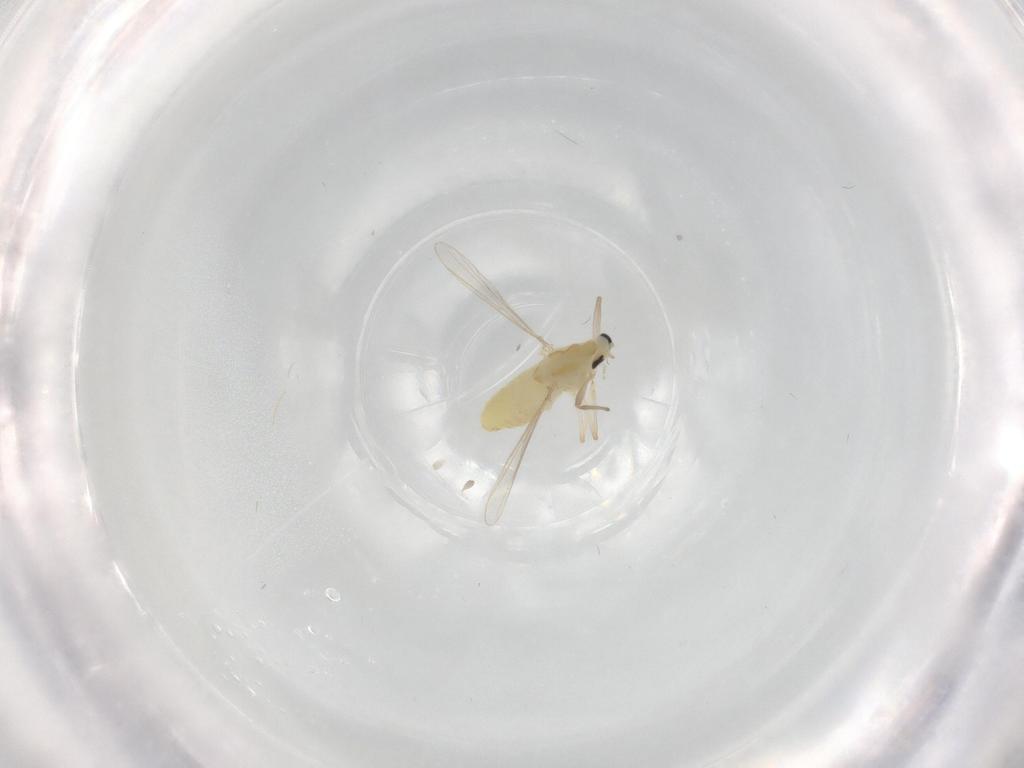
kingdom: Animalia
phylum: Arthropoda
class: Insecta
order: Diptera
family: Chironomidae
